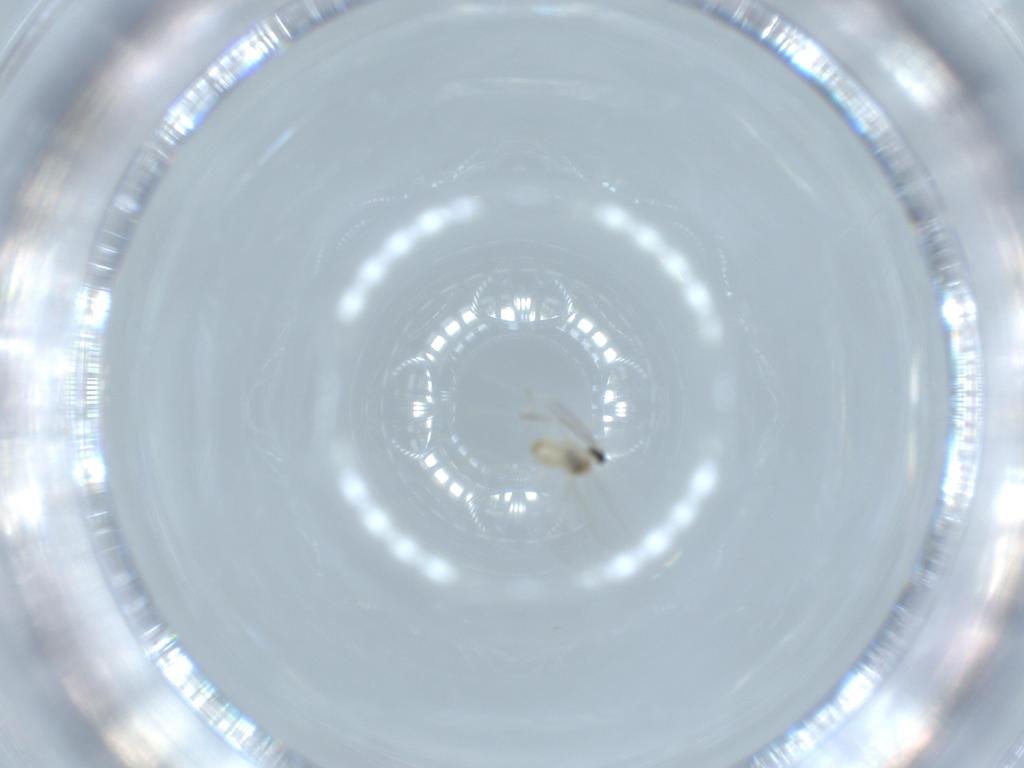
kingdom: Animalia
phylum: Arthropoda
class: Insecta
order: Diptera
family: Cecidomyiidae
